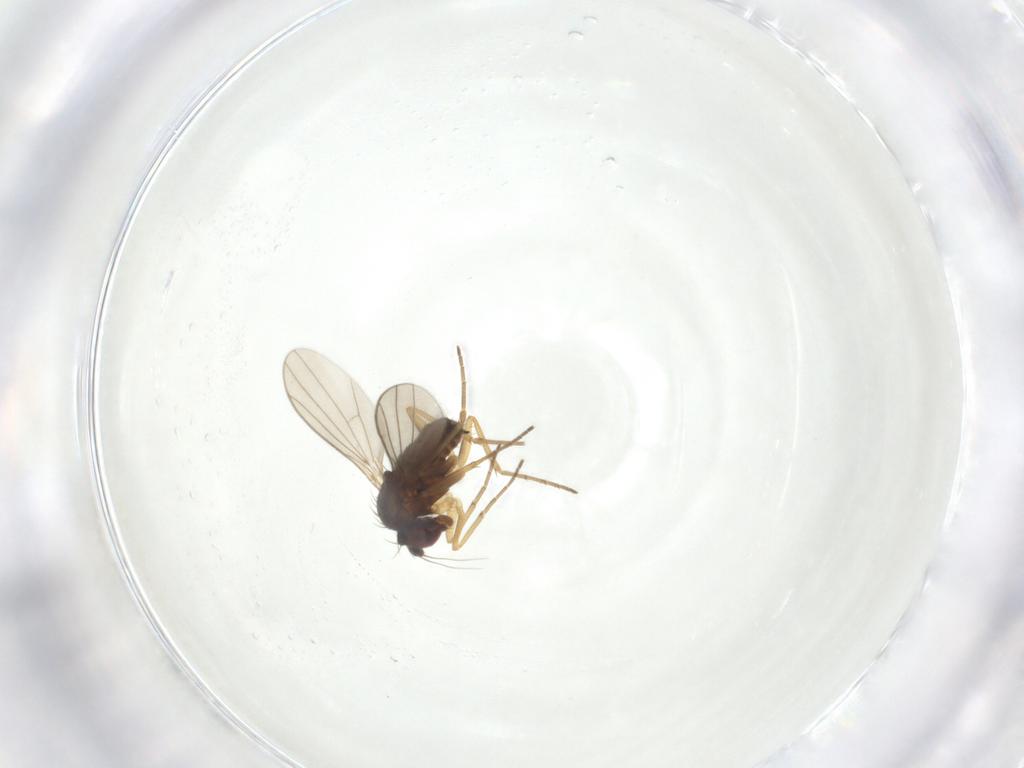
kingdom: Animalia
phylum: Arthropoda
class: Insecta
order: Diptera
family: Dolichopodidae
